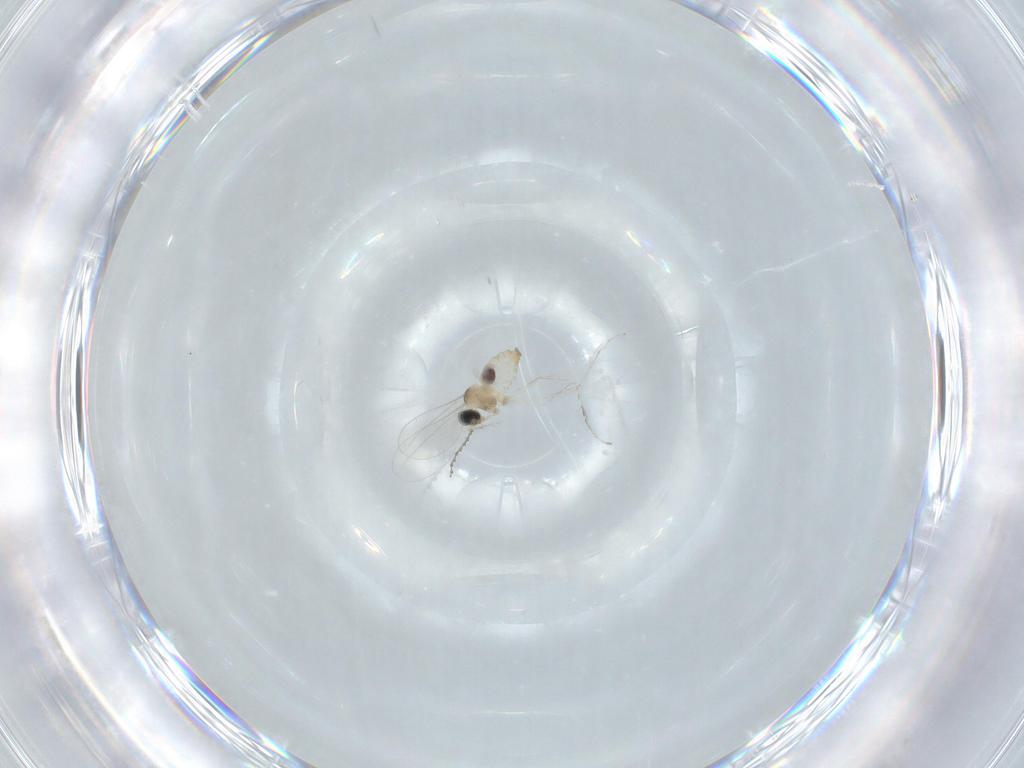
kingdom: Animalia
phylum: Arthropoda
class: Insecta
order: Diptera
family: Cecidomyiidae
